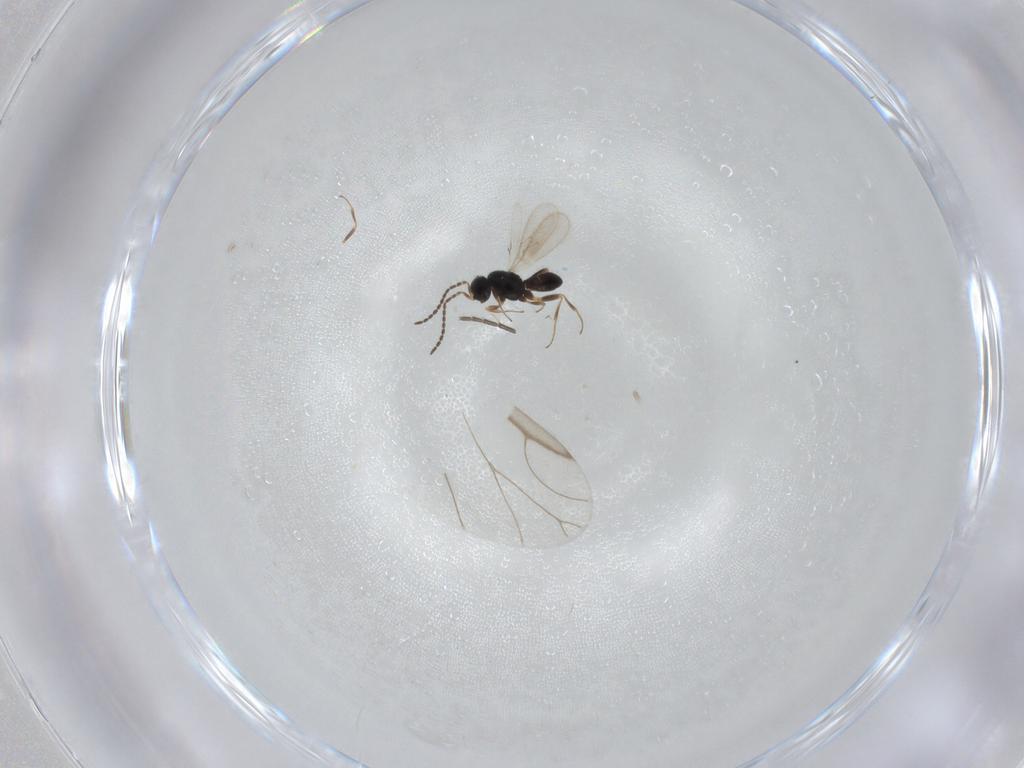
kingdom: Animalia
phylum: Arthropoda
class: Insecta
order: Hymenoptera
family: Scelionidae
